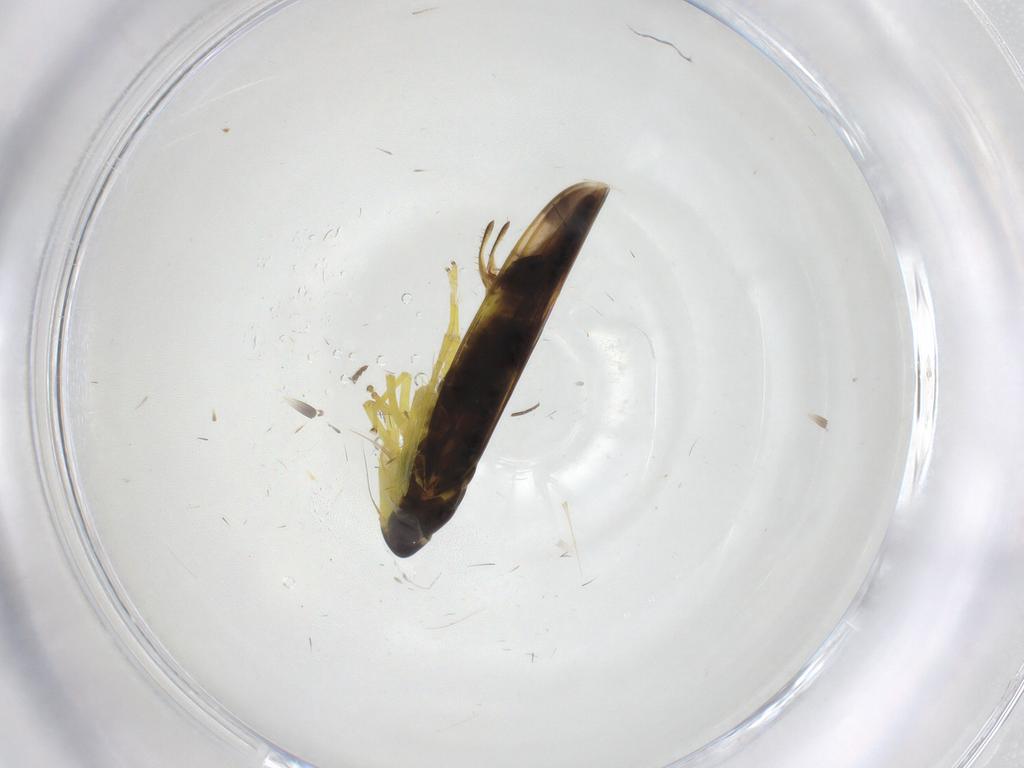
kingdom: Animalia
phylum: Arthropoda
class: Insecta
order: Hemiptera
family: Cicadellidae
